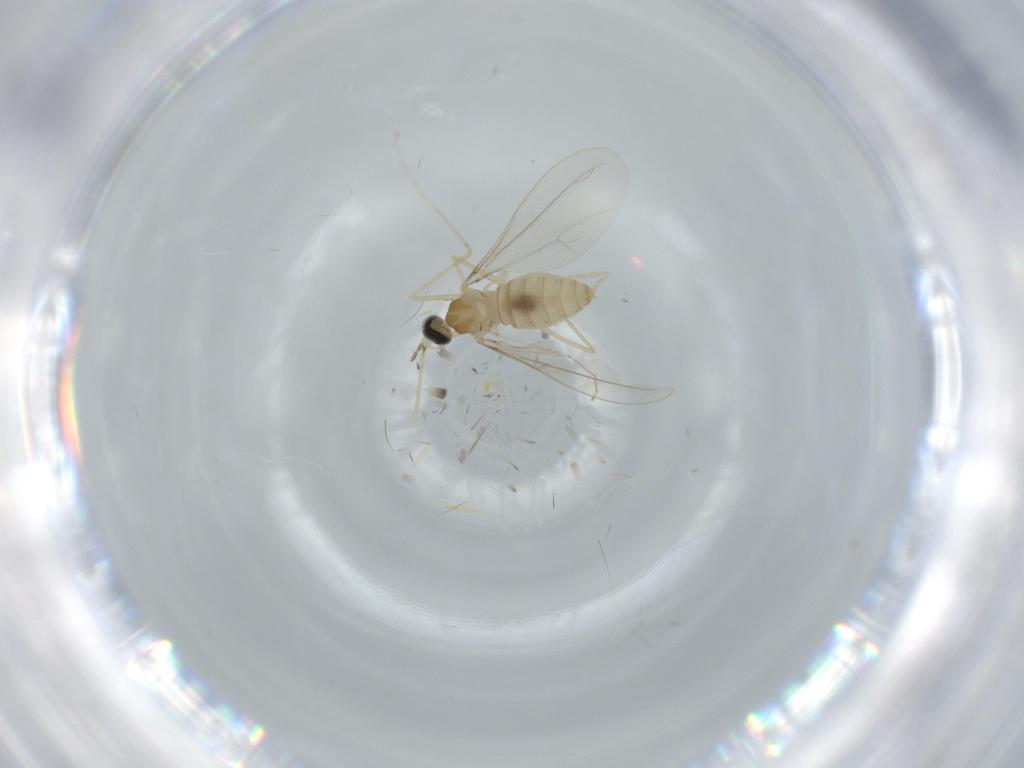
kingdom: Animalia
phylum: Arthropoda
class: Insecta
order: Diptera
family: Cecidomyiidae
